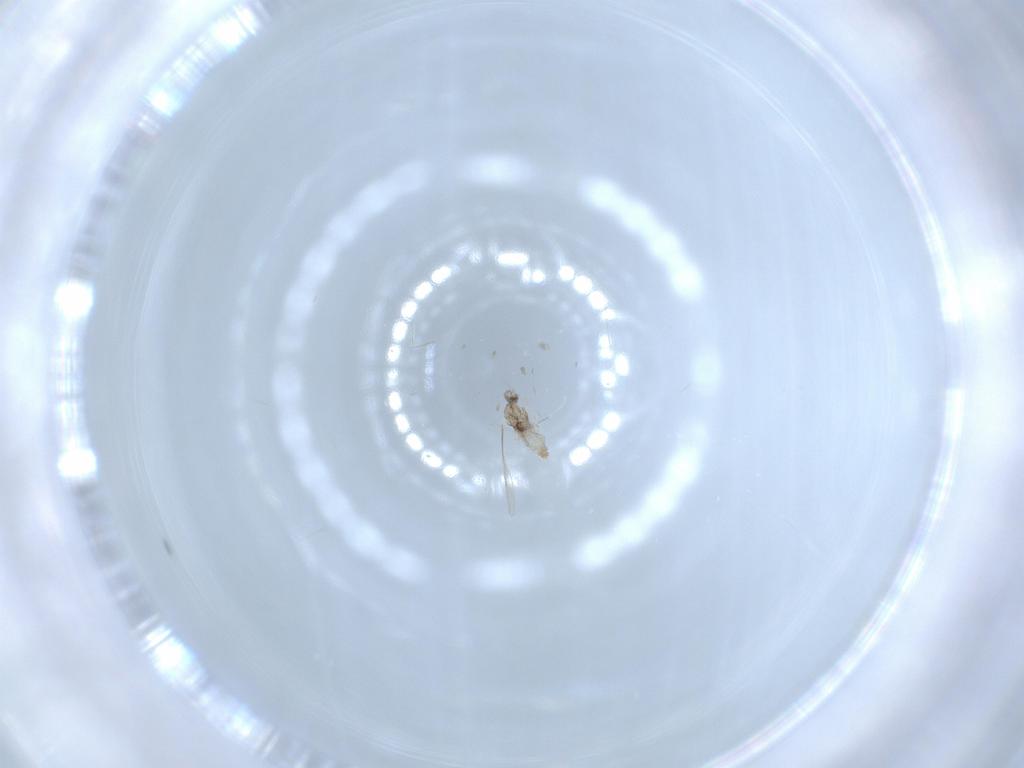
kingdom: Animalia
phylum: Arthropoda
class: Insecta
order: Diptera
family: Cecidomyiidae
